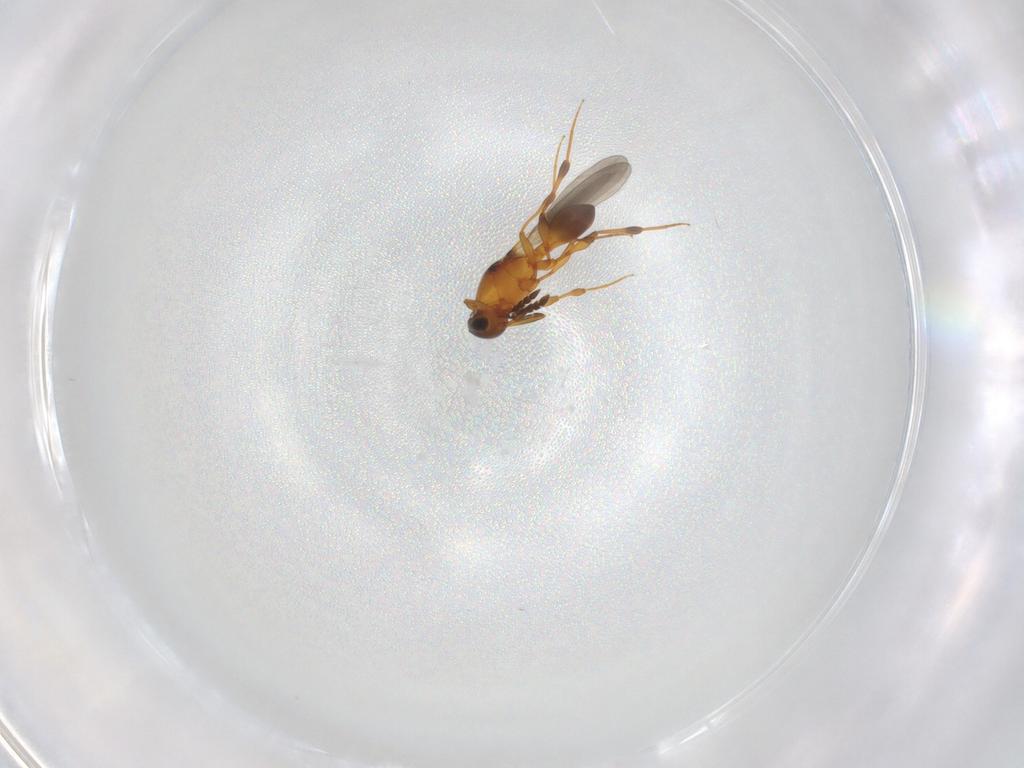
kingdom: Animalia
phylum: Arthropoda
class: Insecta
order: Hymenoptera
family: Platygastridae
